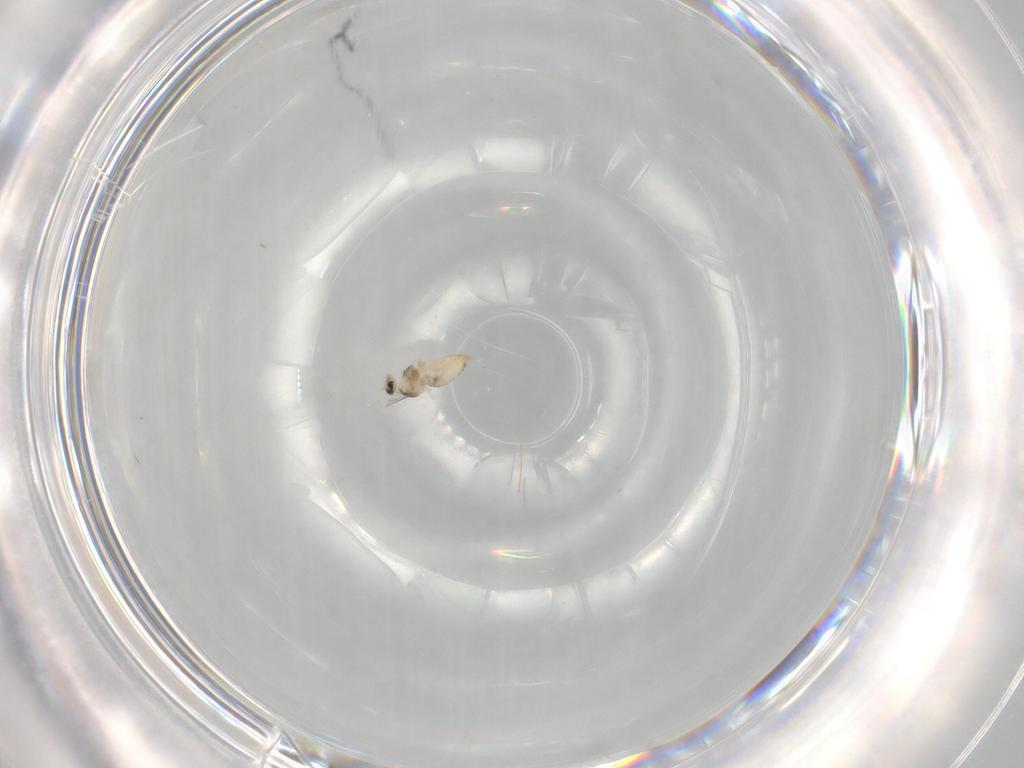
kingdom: Animalia
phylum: Arthropoda
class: Insecta
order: Diptera
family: Cecidomyiidae
